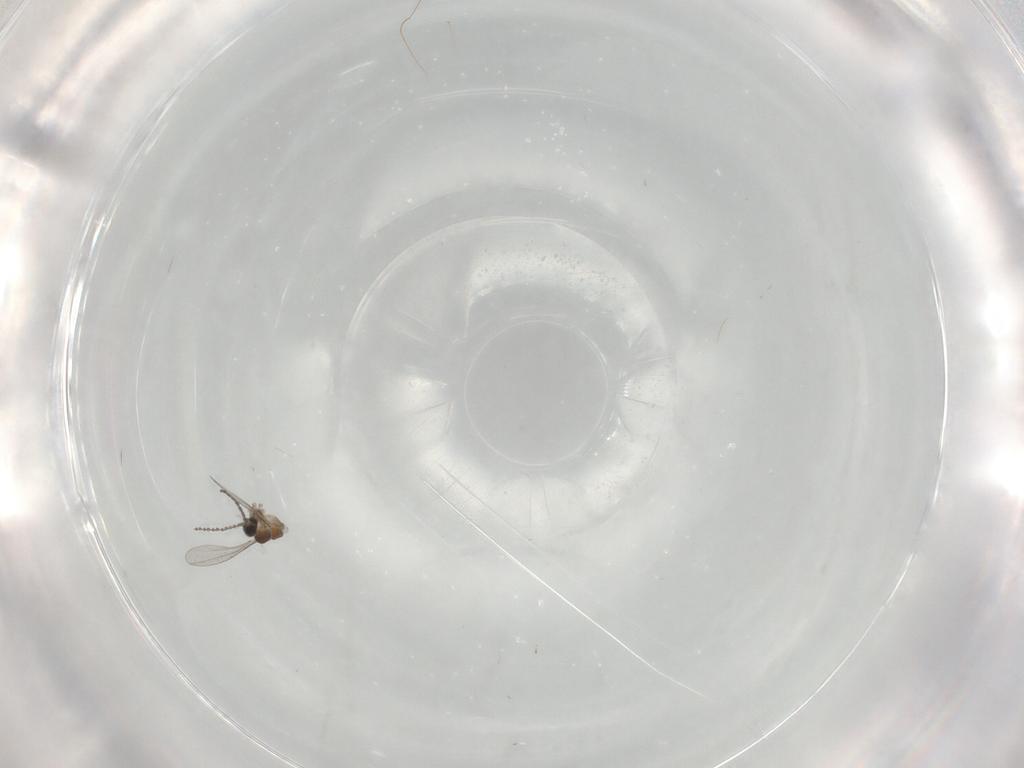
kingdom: Animalia
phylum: Arthropoda
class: Insecta
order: Diptera
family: Cecidomyiidae
